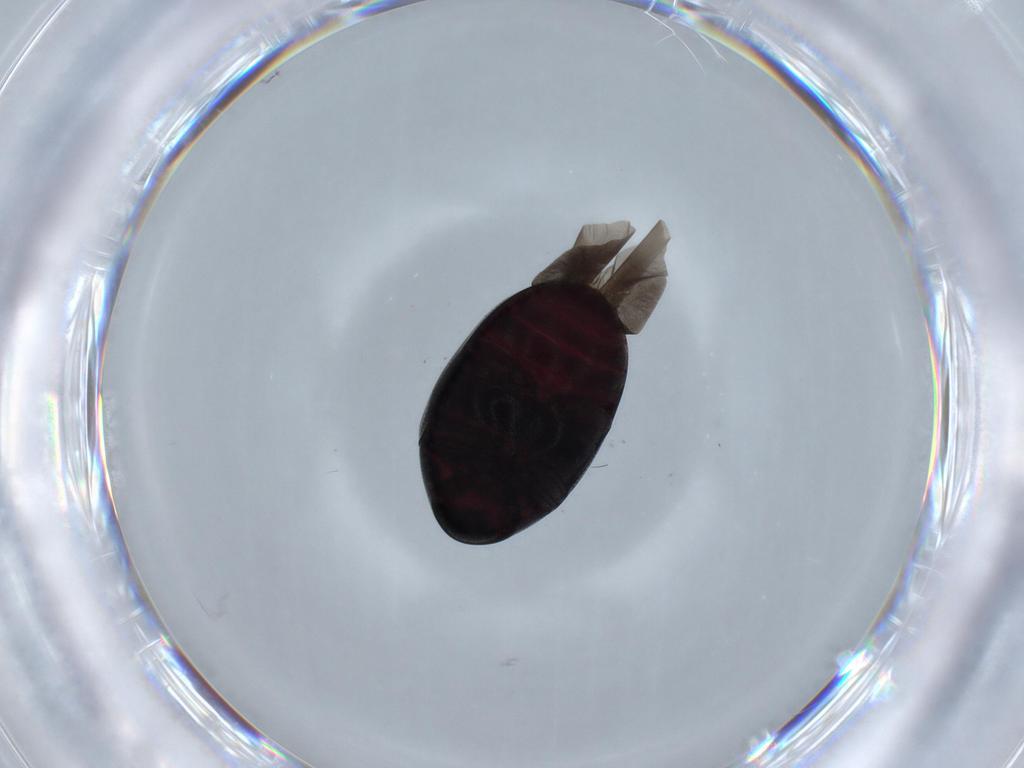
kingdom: Animalia
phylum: Arthropoda
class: Insecta
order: Coleoptera
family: Ptinidae
